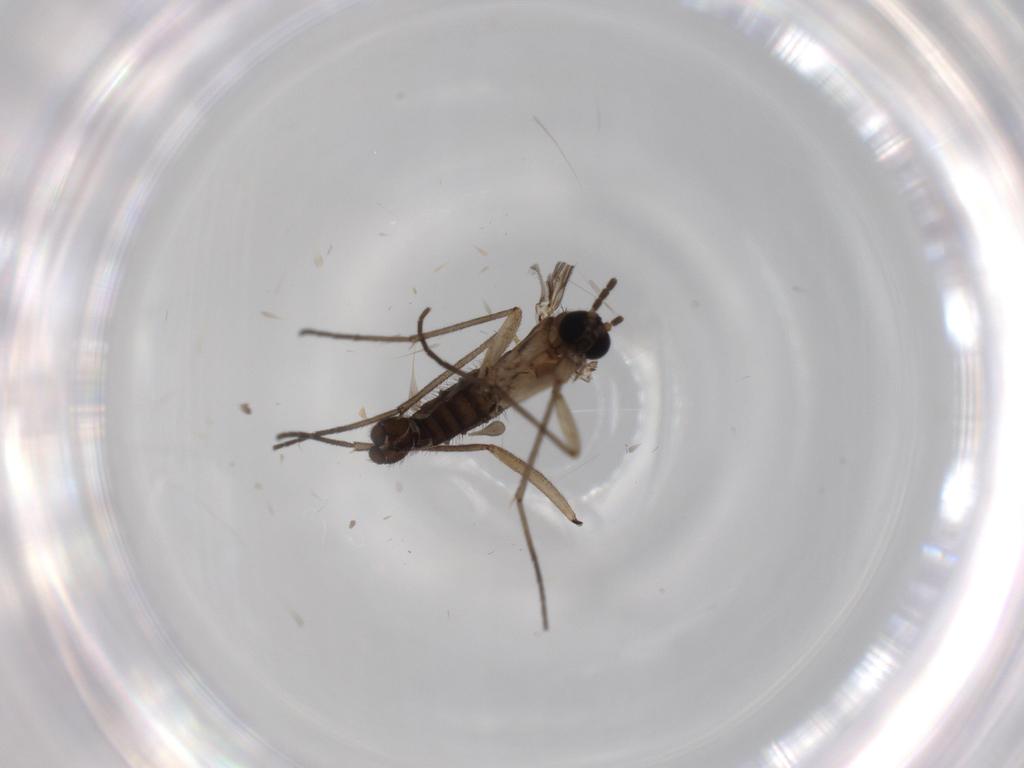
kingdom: Animalia
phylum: Arthropoda
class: Insecta
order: Diptera
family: Sciaridae
